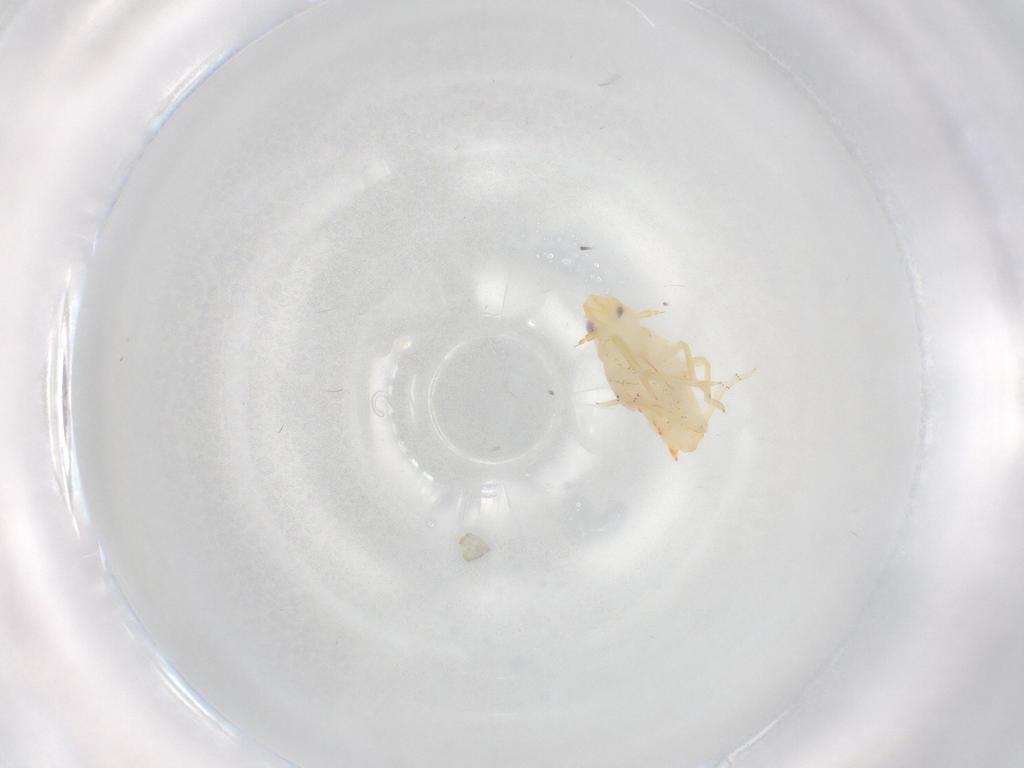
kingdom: Animalia
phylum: Arthropoda
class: Insecta
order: Hemiptera
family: Flatidae
